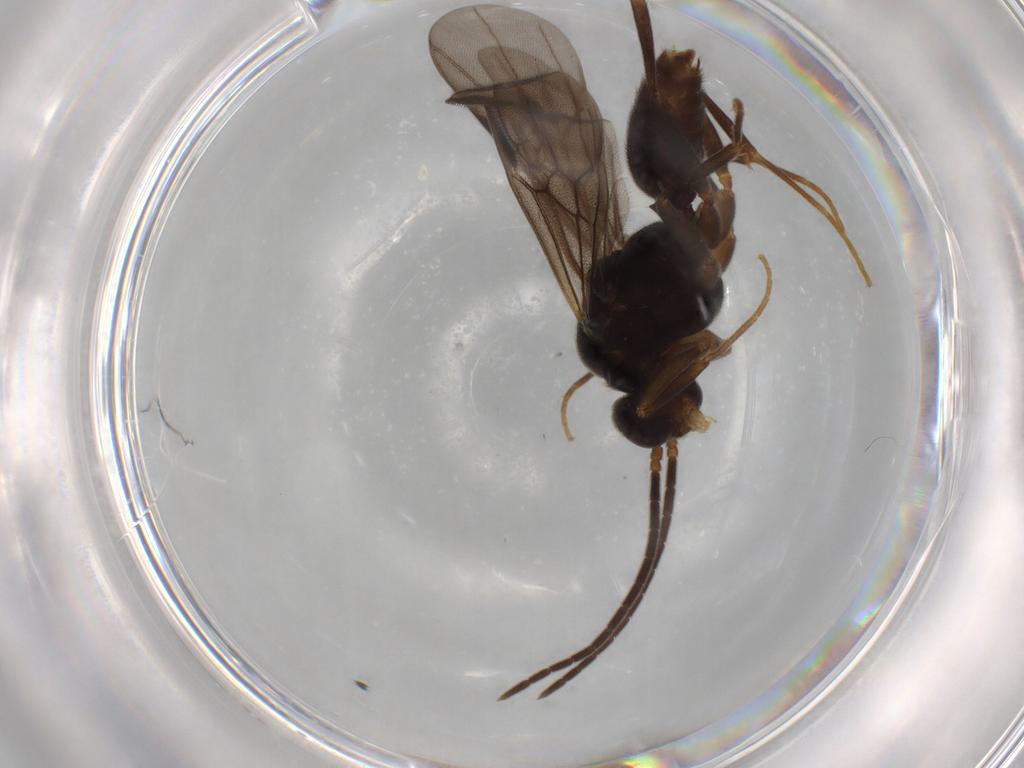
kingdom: Animalia
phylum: Arthropoda
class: Insecta
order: Hymenoptera
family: Formicidae
